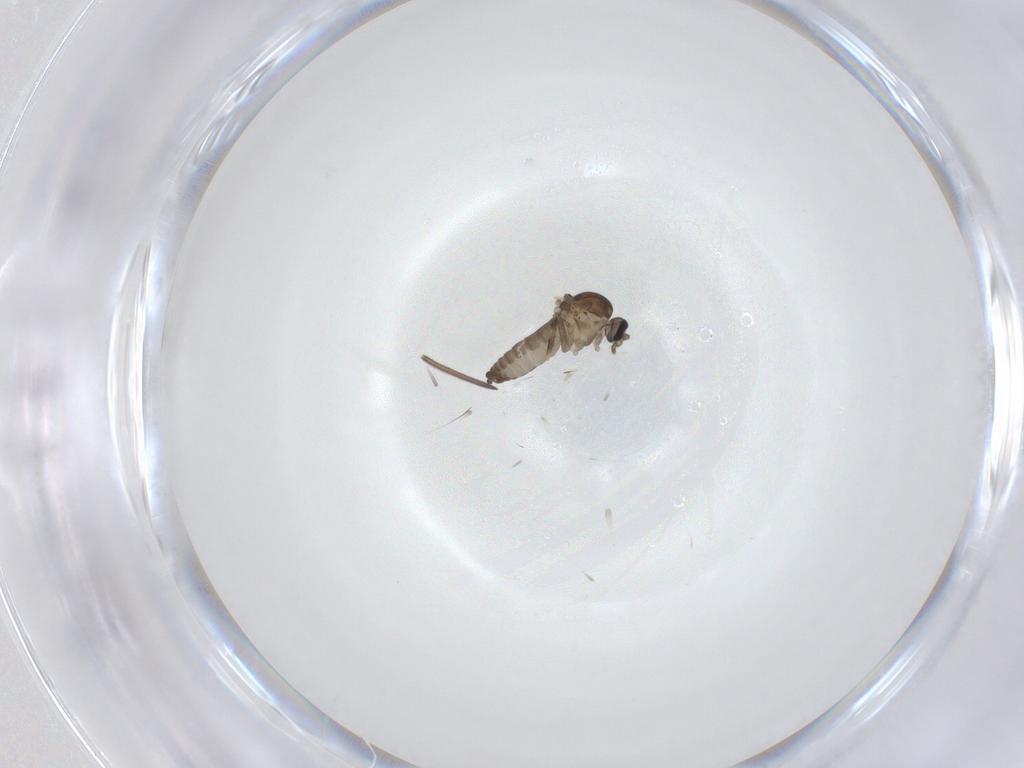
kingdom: Animalia
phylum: Arthropoda
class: Insecta
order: Diptera
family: Ceratopogonidae
